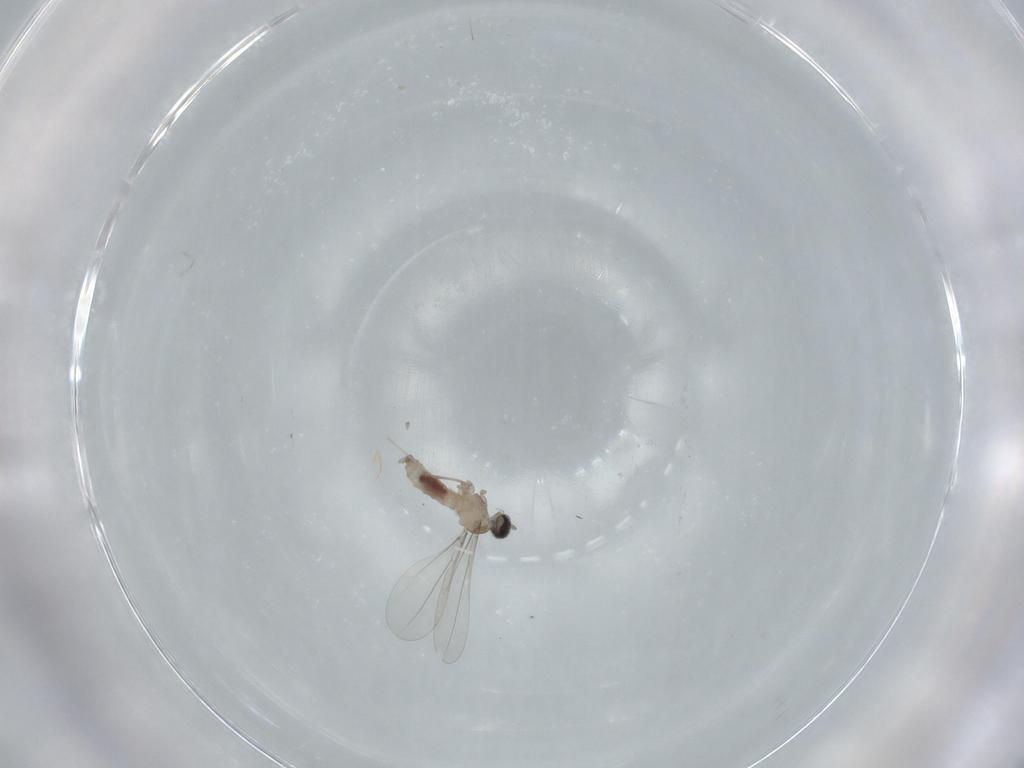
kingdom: Animalia
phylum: Arthropoda
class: Insecta
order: Diptera
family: Cecidomyiidae
